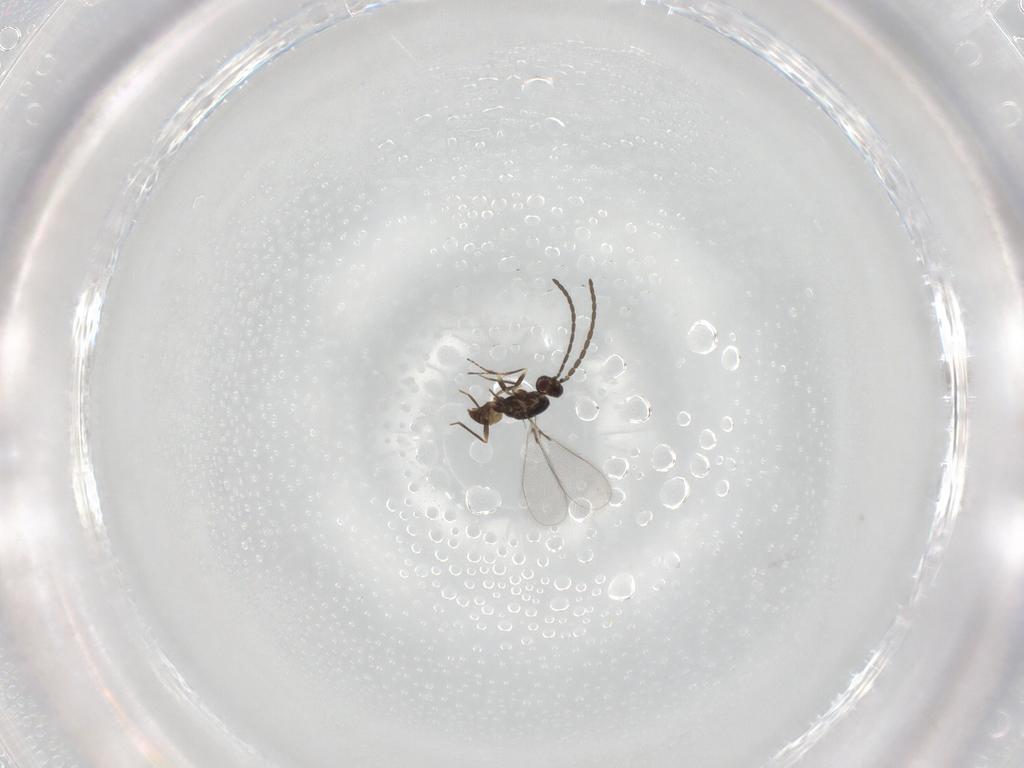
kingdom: Animalia
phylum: Arthropoda
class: Insecta
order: Hymenoptera
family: Mymaridae
